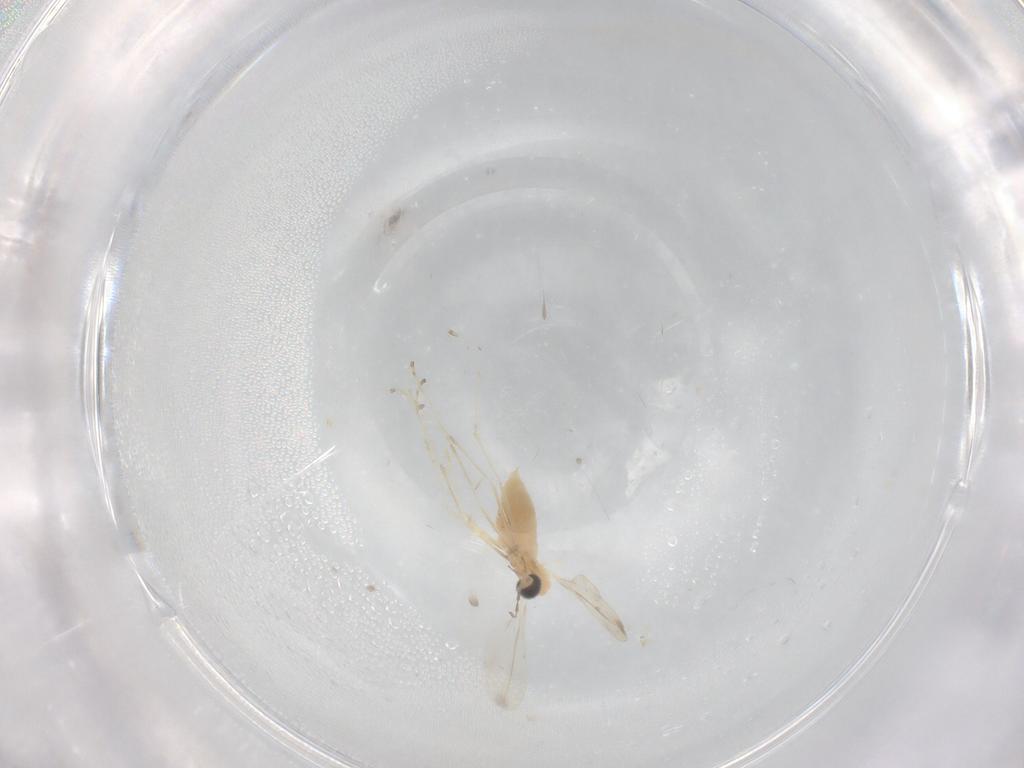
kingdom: Animalia
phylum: Arthropoda
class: Insecta
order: Diptera
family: Cecidomyiidae
